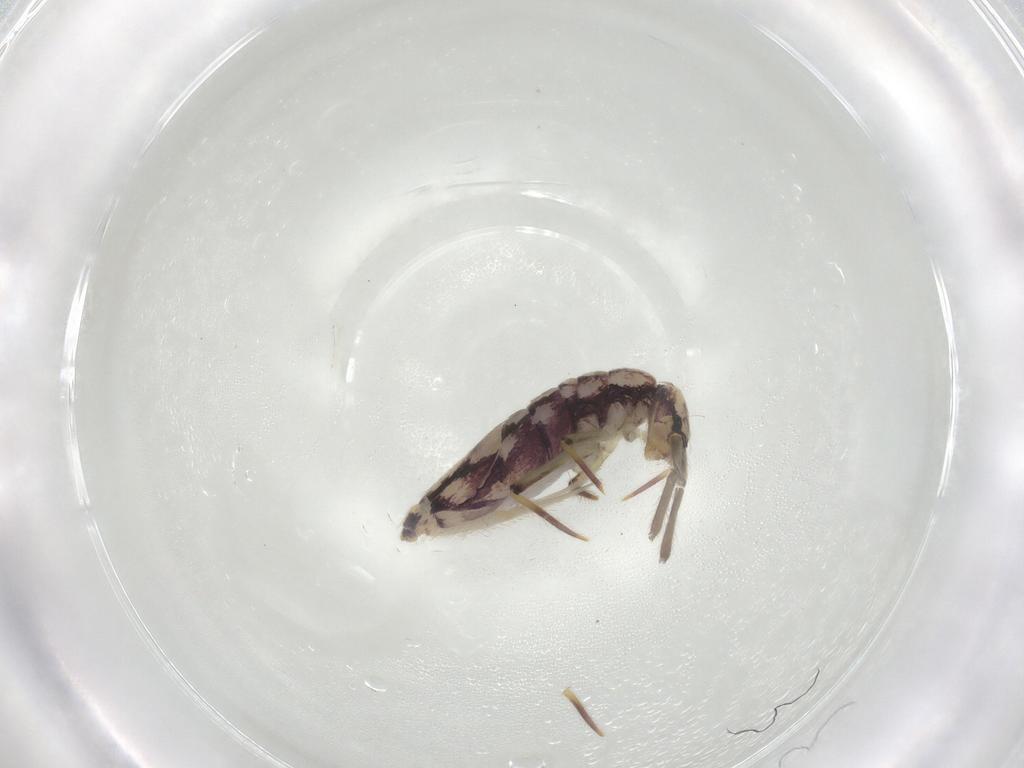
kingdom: Animalia
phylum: Arthropoda
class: Collembola
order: Entomobryomorpha
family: Entomobryidae
